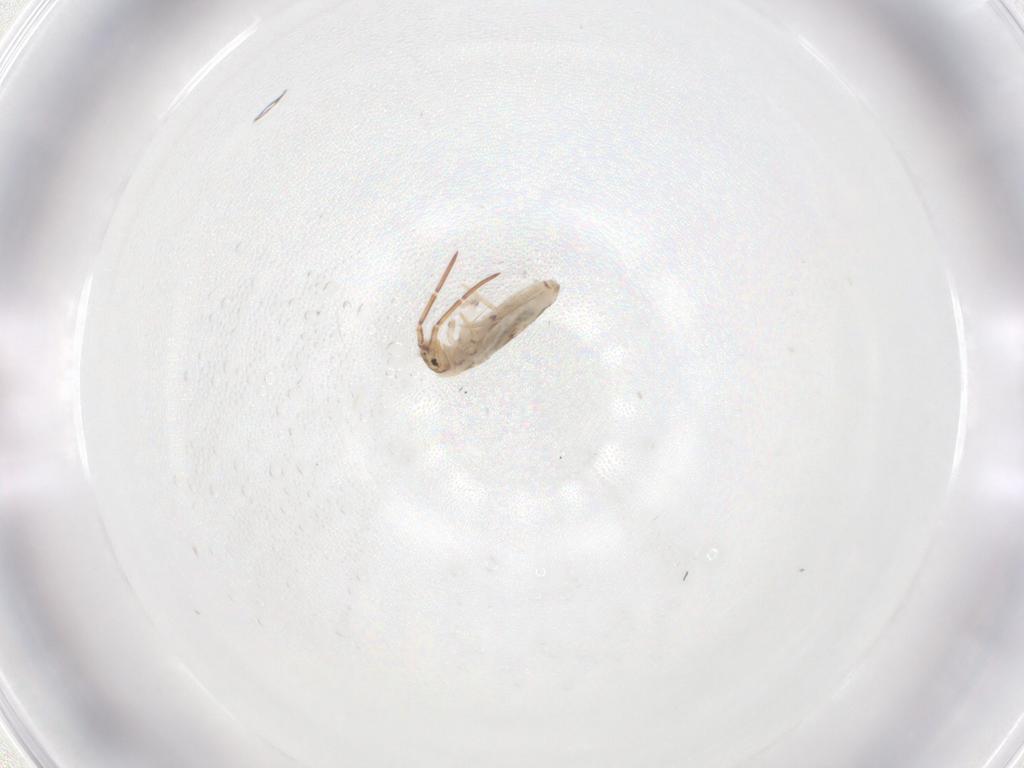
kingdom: Animalia
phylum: Arthropoda
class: Collembola
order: Entomobryomorpha
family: Entomobryidae
